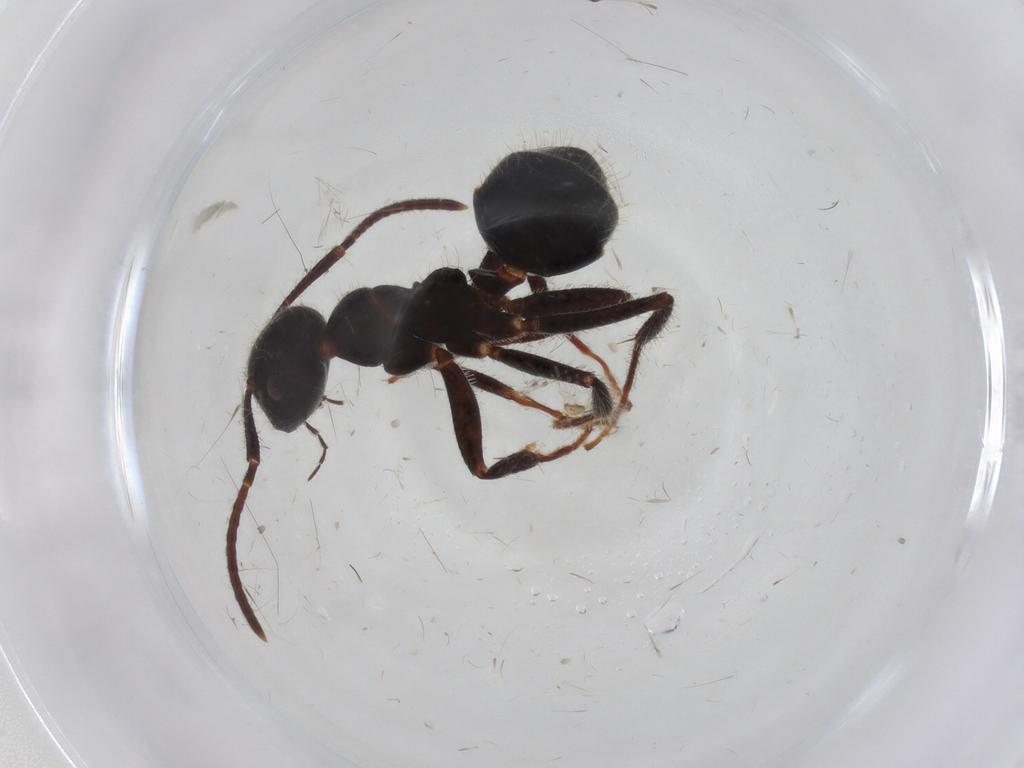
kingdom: Animalia
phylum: Arthropoda
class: Insecta
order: Hymenoptera
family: Formicidae
